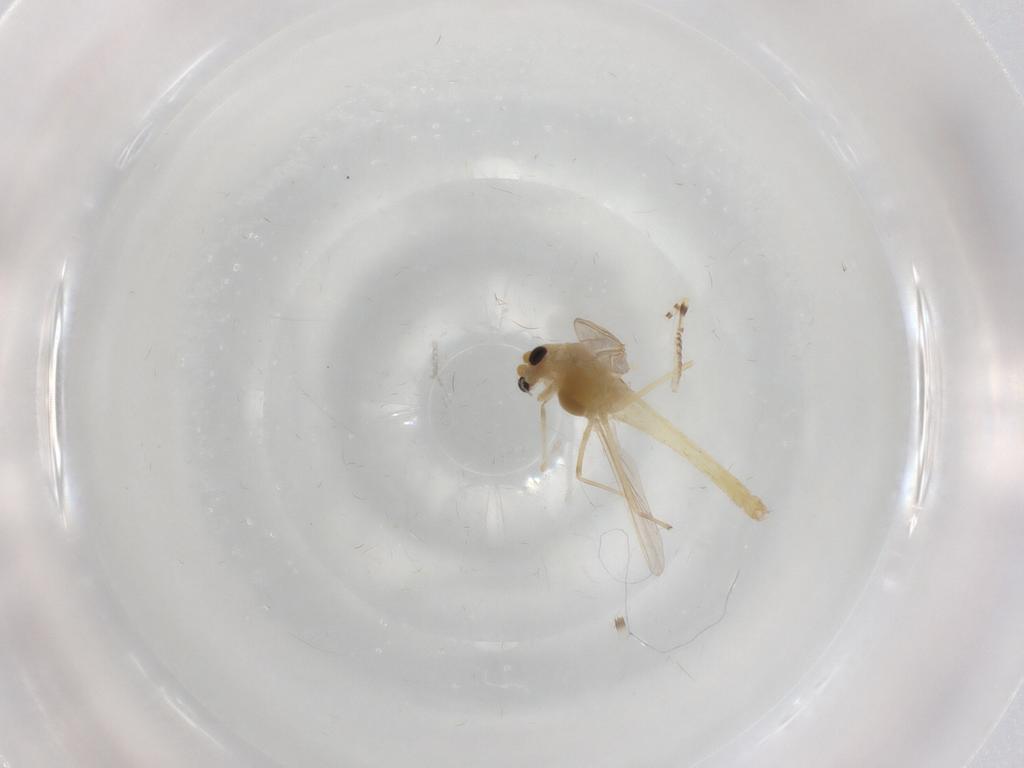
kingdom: Animalia
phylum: Arthropoda
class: Insecta
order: Diptera
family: Chironomidae
